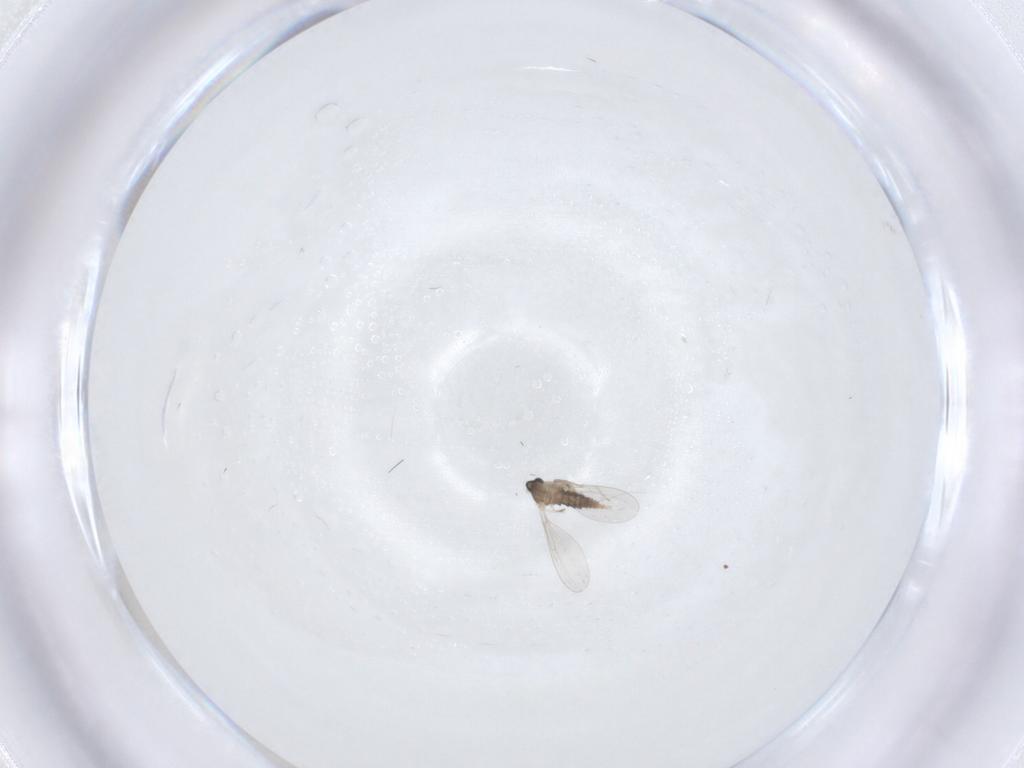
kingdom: Animalia
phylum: Arthropoda
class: Insecta
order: Diptera
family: Cecidomyiidae
